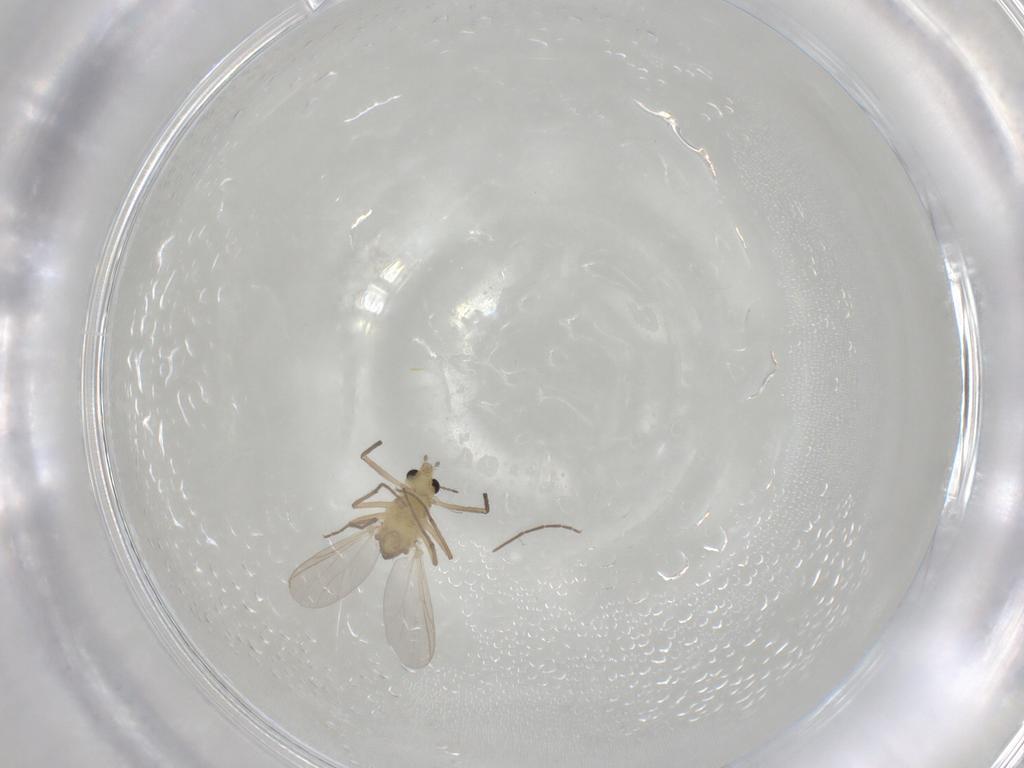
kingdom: Animalia
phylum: Arthropoda
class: Insecta
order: Diptera
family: Chironomidae
